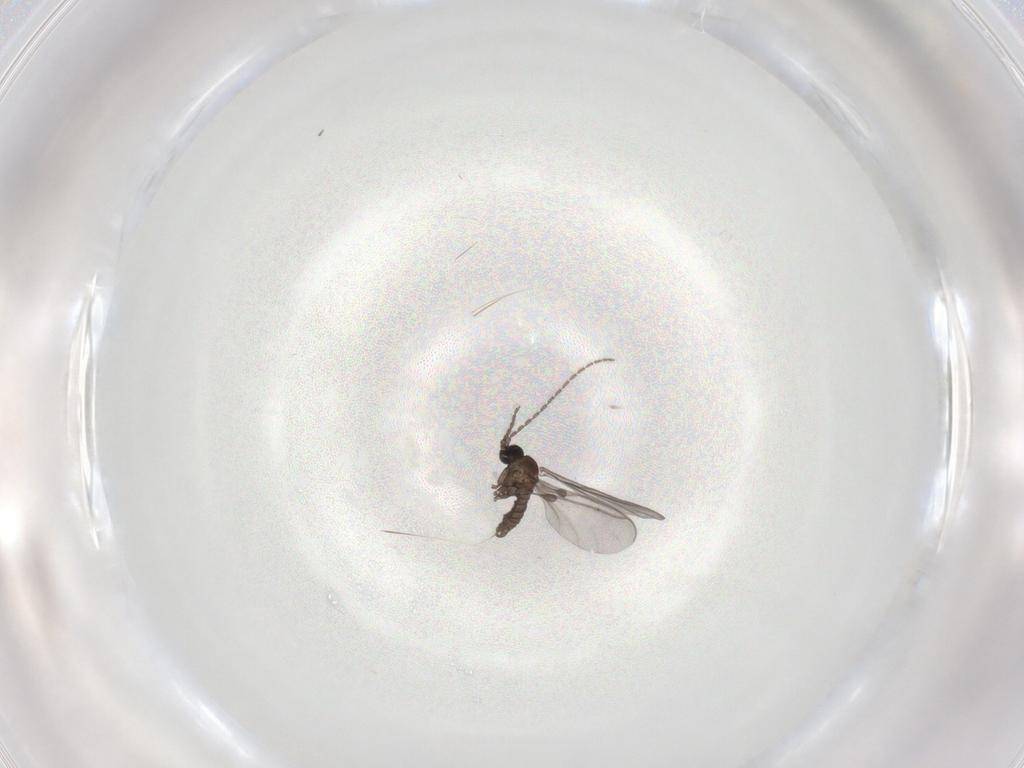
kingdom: Animalia
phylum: Arthropoda
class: Insecta
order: Diptera
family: Sciaridae
